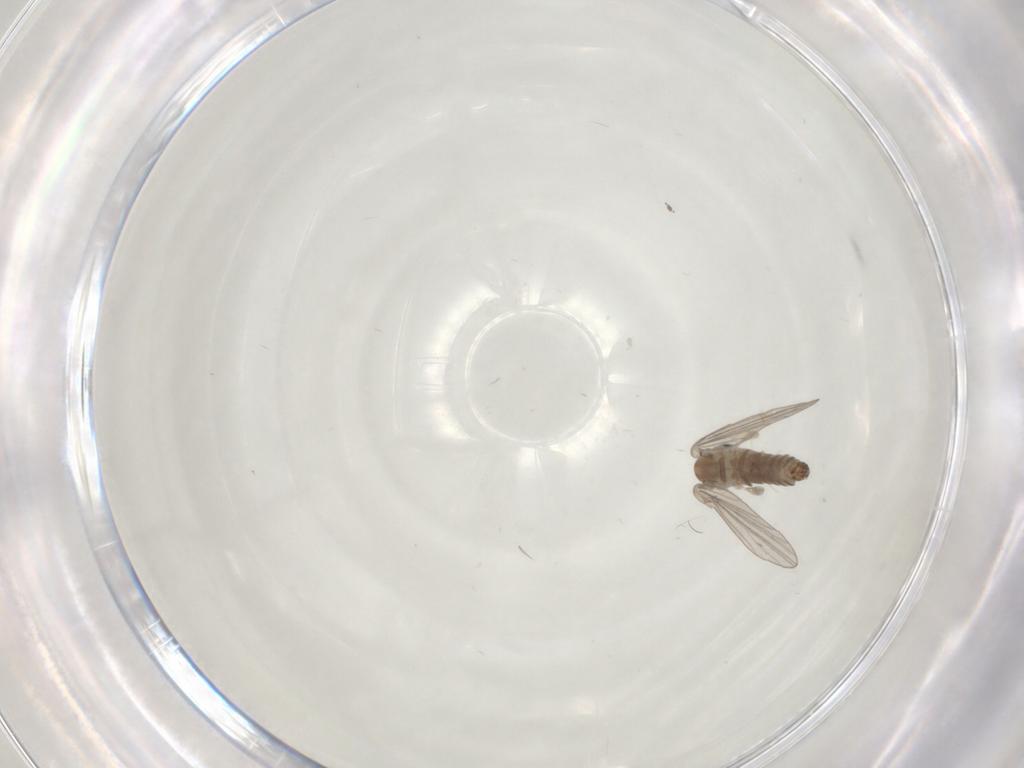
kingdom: Animalia
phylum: Arthropoda
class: Insecta
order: Diptera
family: Psychodidae
